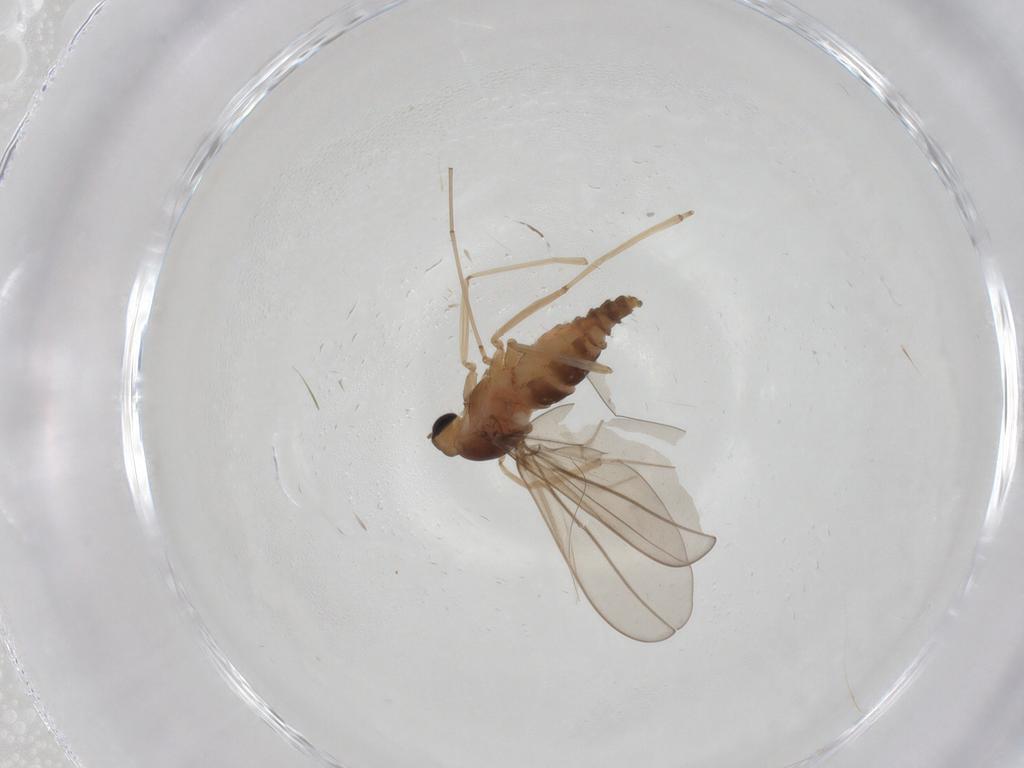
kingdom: Animalia
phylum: Arthropoda
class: Insecta
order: Diptera
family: Cecidomyiidae
